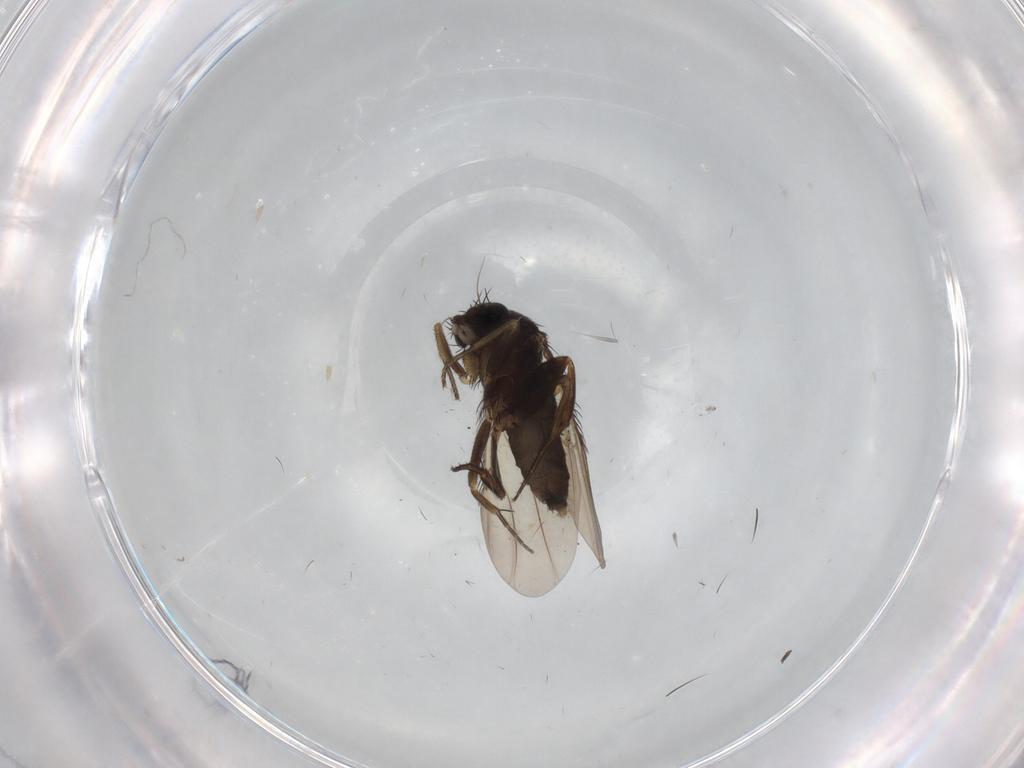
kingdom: Animalia
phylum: Arthropoda
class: Insecta
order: Diptera
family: Phoridae
